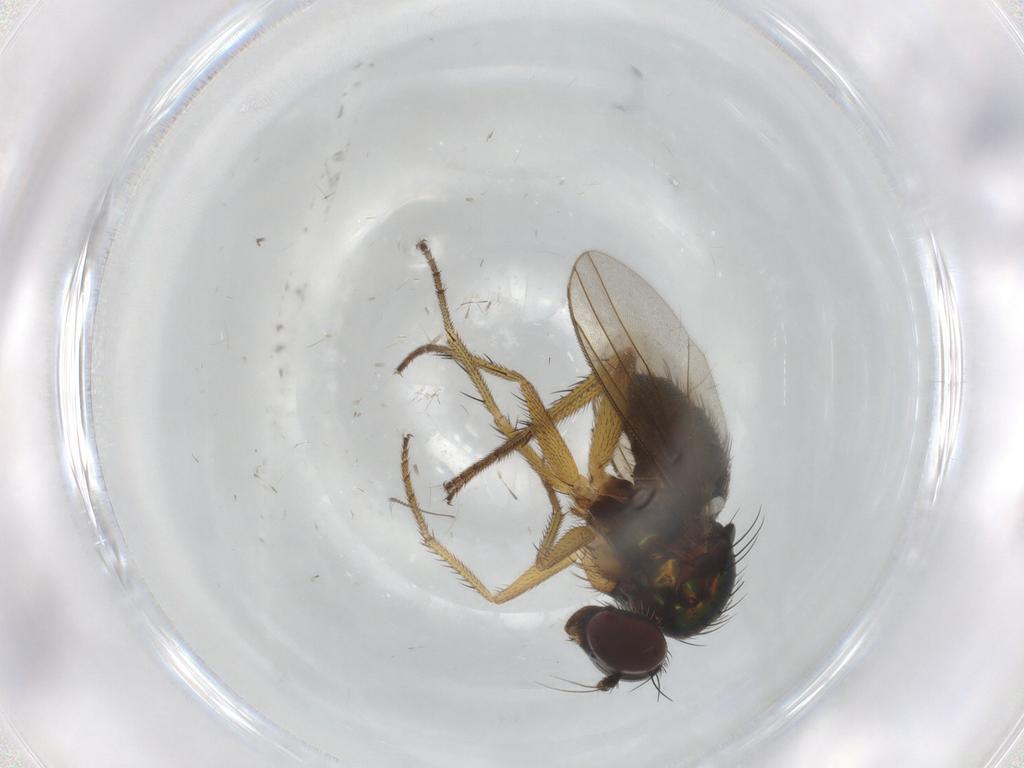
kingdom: Animalia
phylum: Arthropoda
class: Insecta
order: Diptera
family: Dolichopodidae
